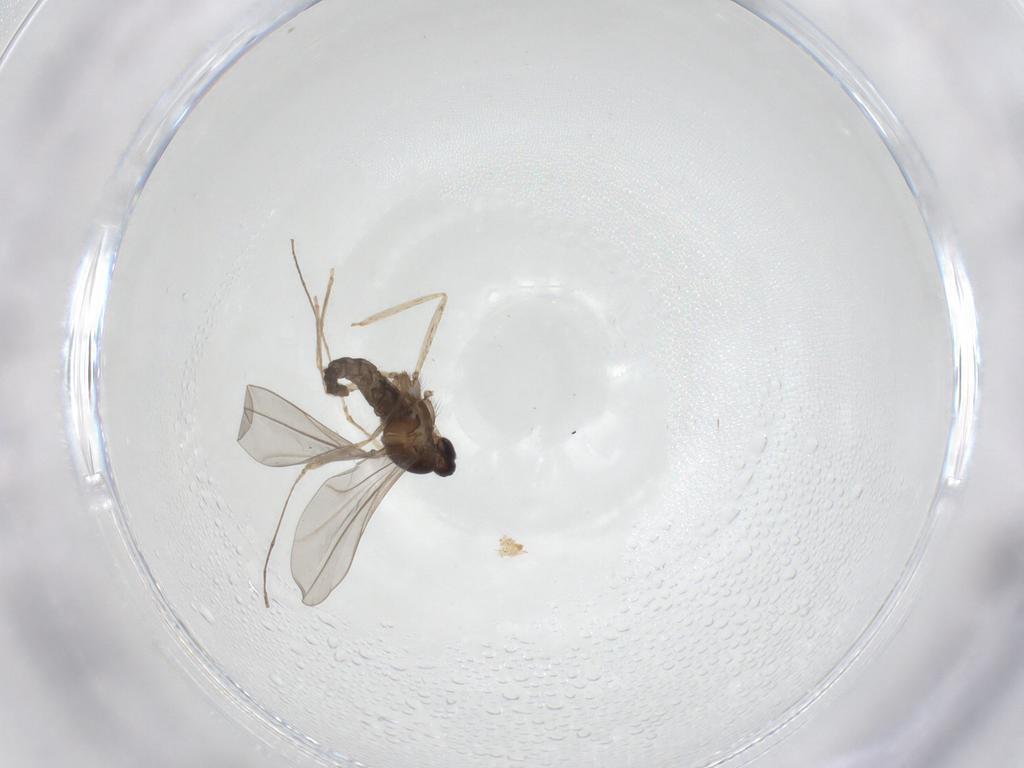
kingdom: Animalia
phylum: Arthropoda
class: Insecta
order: Diptera
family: Cecidomyiidae
